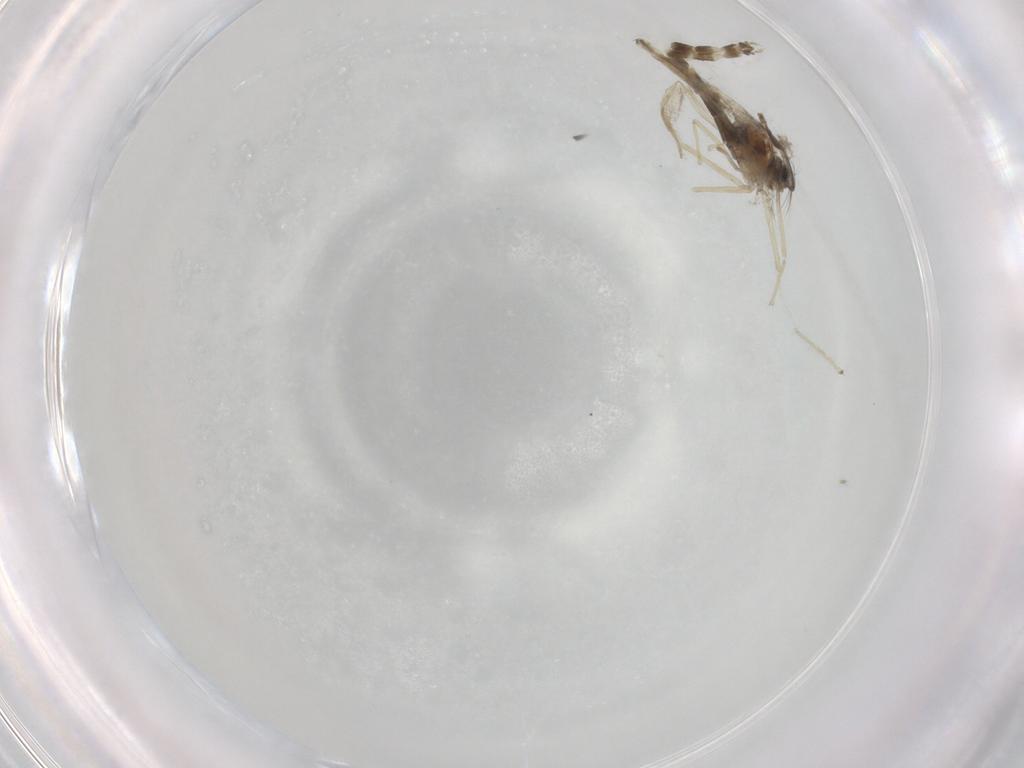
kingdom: Animalia
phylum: Arthropoda
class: Insecta
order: Diptera
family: Chironomidae
